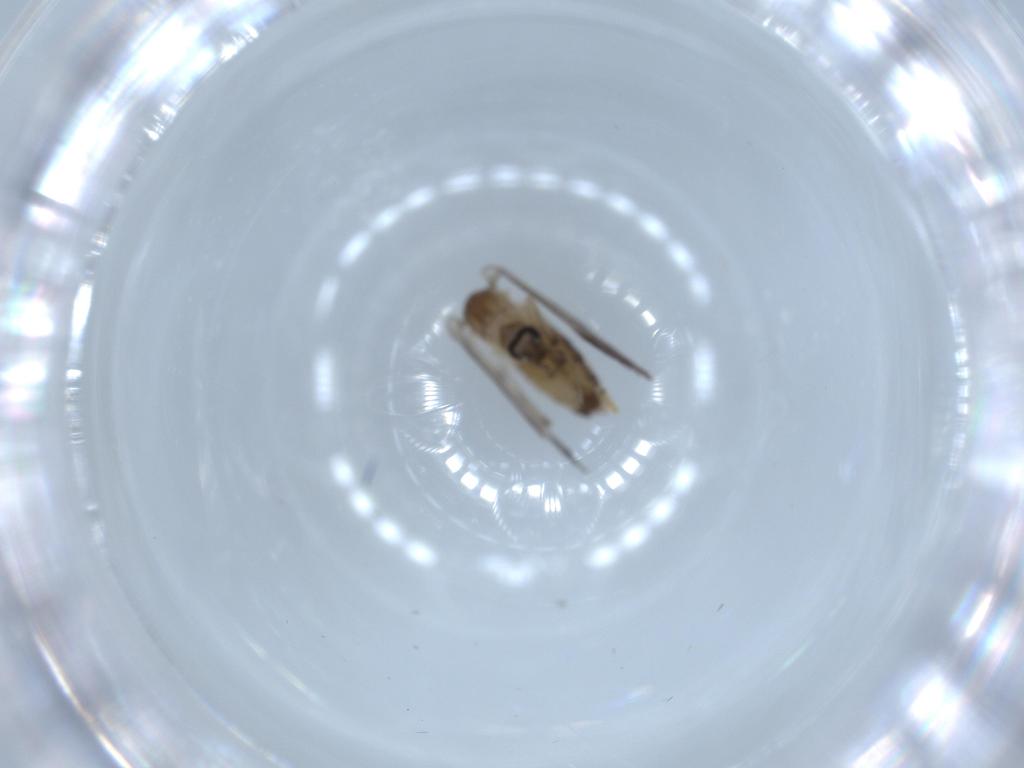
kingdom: Animalia
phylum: Arthropoda
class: Insecta
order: Diptera
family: Psychodidae
